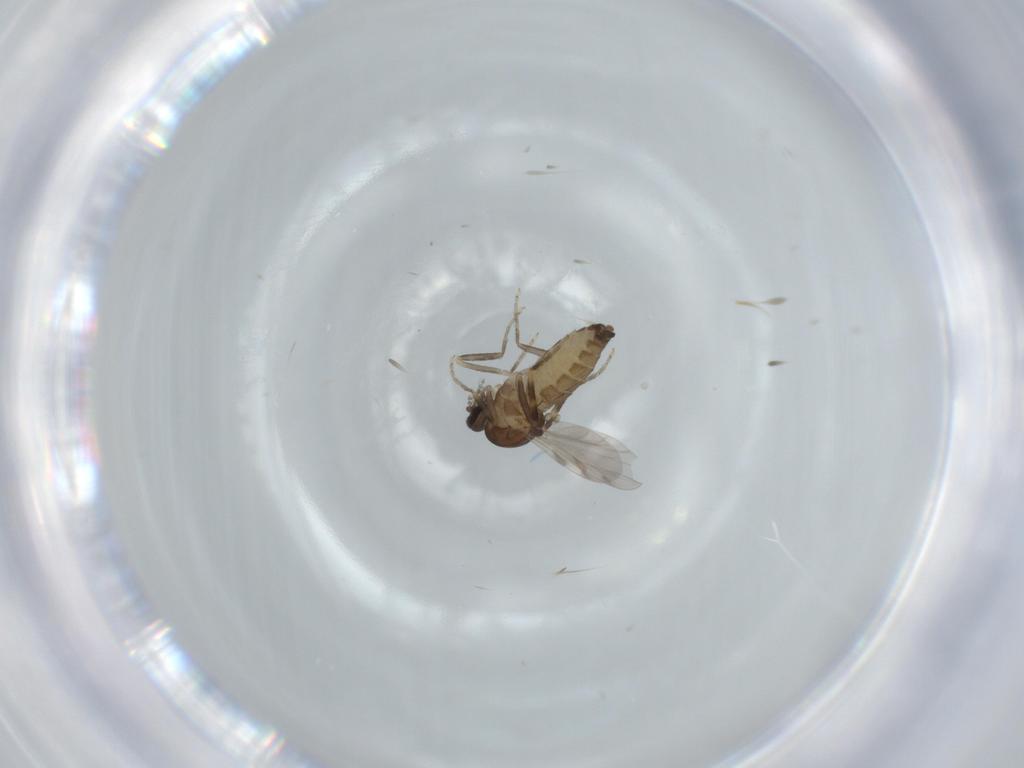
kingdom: Animalia
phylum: Arthropoda
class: Insecta
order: Diptera
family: Ceratopogonidae
